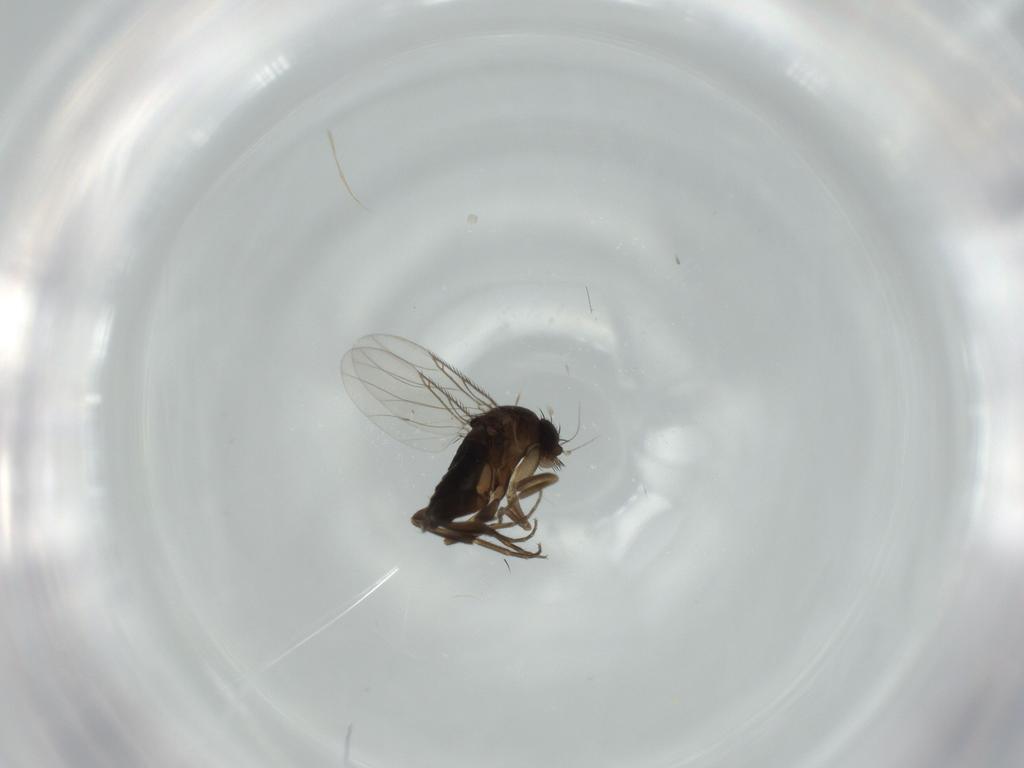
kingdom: Animalia
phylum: Arthropoda
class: Insecta
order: Diptera
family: Phoridae
